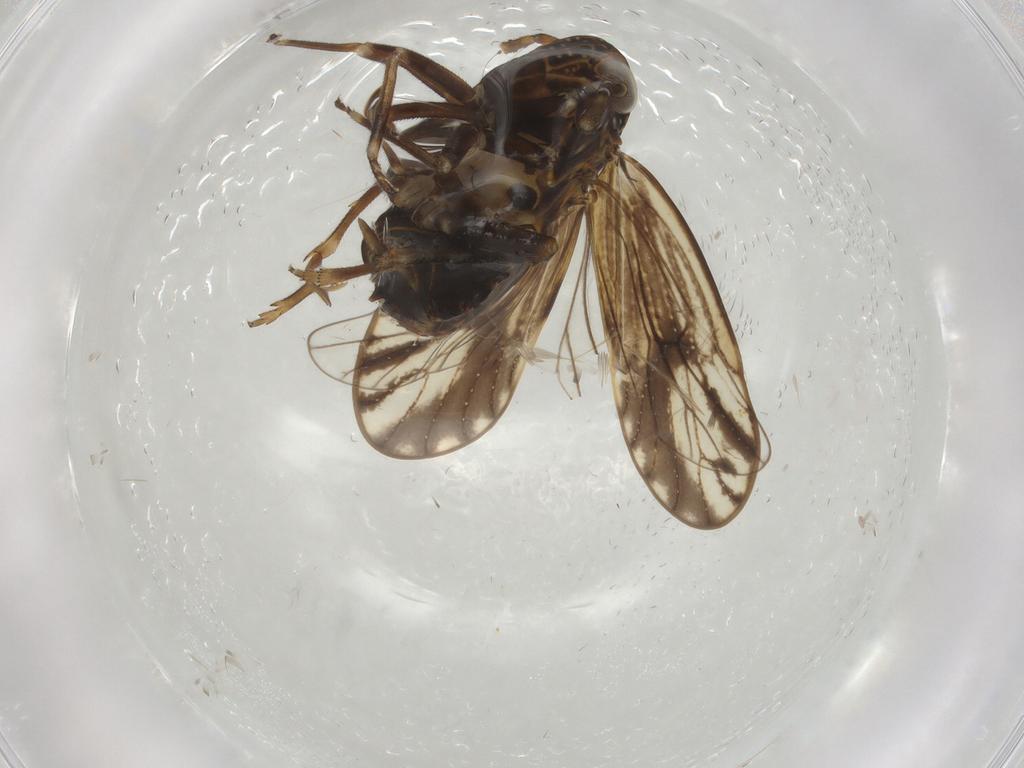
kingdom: Animalia
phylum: Arthropoda
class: Insecta
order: Hemiptera
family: Delphacidae
